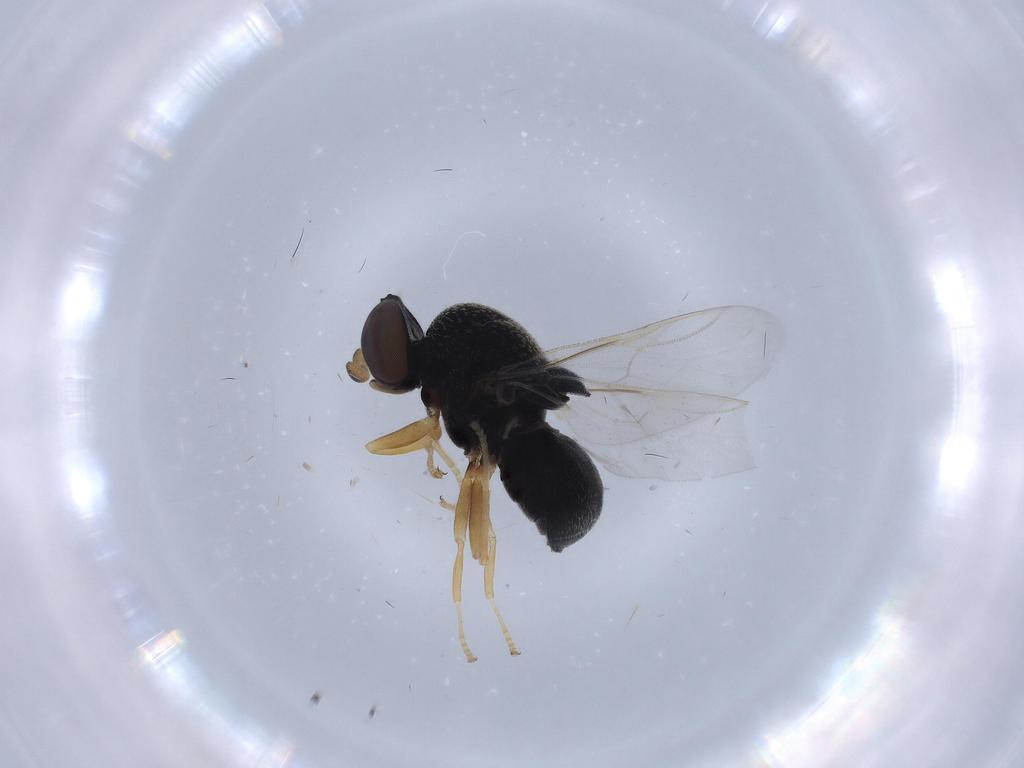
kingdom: Animalia
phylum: Arthropoda
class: Insecta
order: Diptera
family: Stratiomyidae
